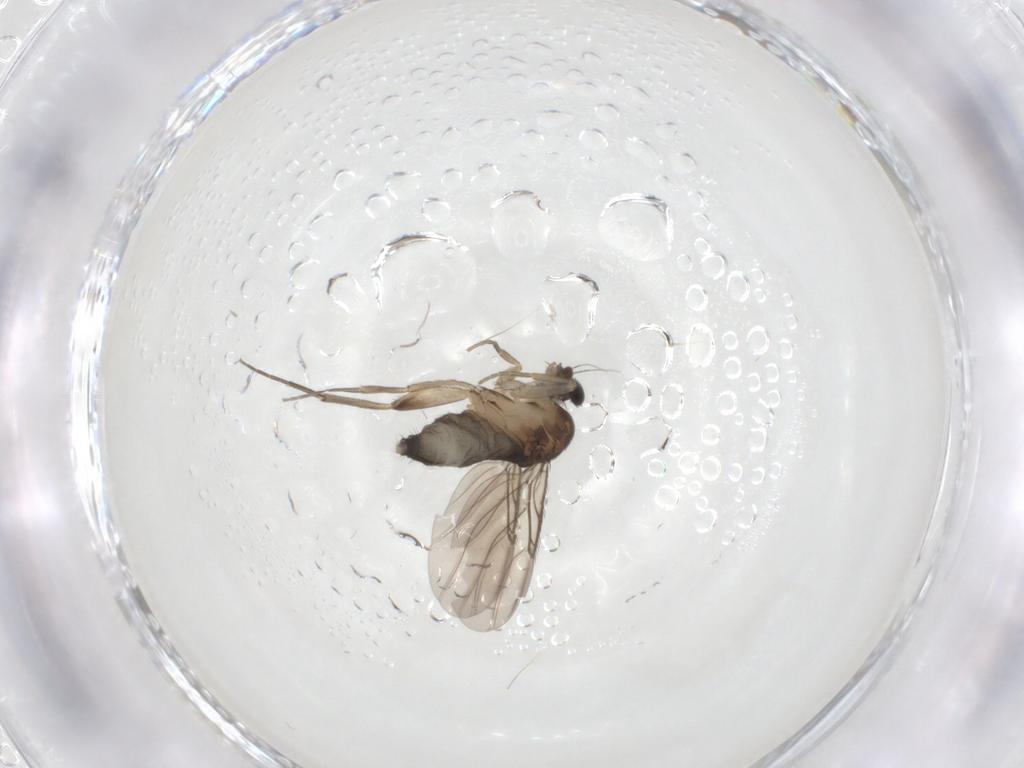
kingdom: Animalia
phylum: Arthropoda
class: Insecta
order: Diptera
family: Phoridae
